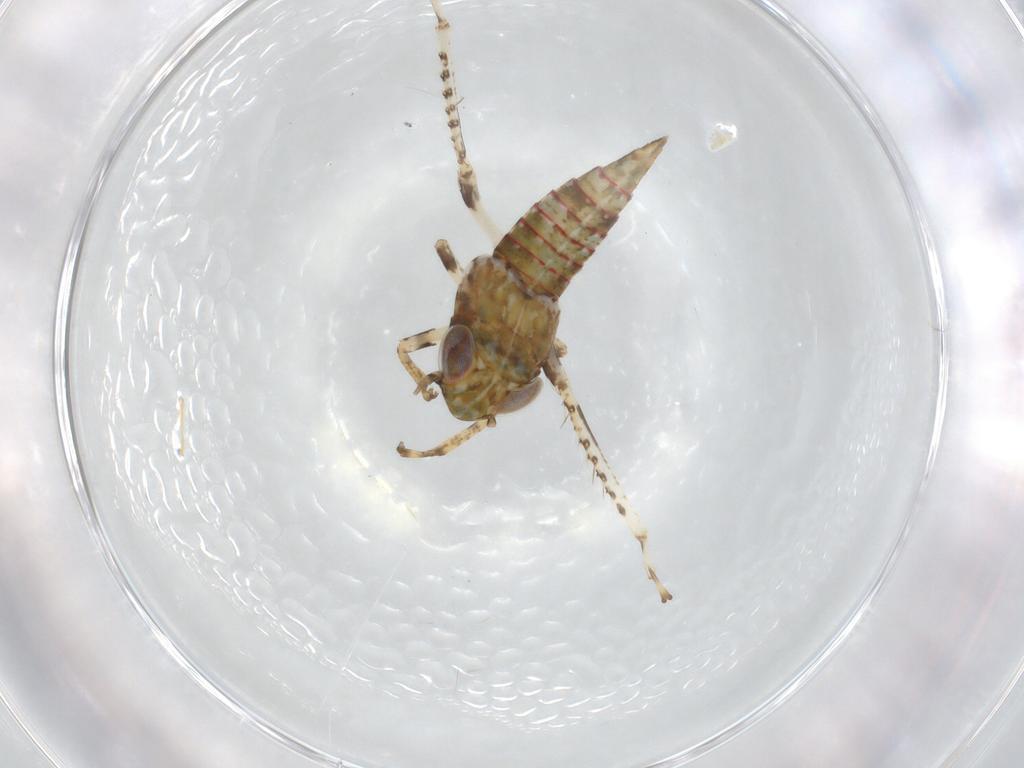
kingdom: Animalia
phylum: Arthropoda
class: Insecta
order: Hemiptera
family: Cicadellidae
